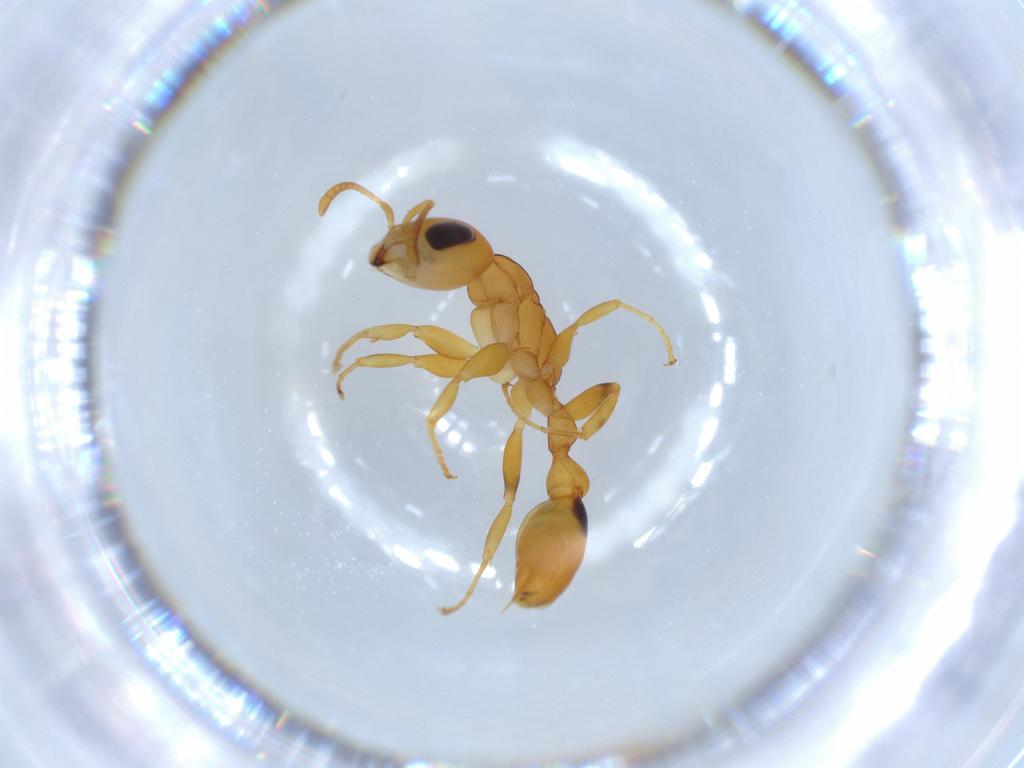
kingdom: Animalia
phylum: Arthropoda
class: Insecta
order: Hymenoptera
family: Formicidae
